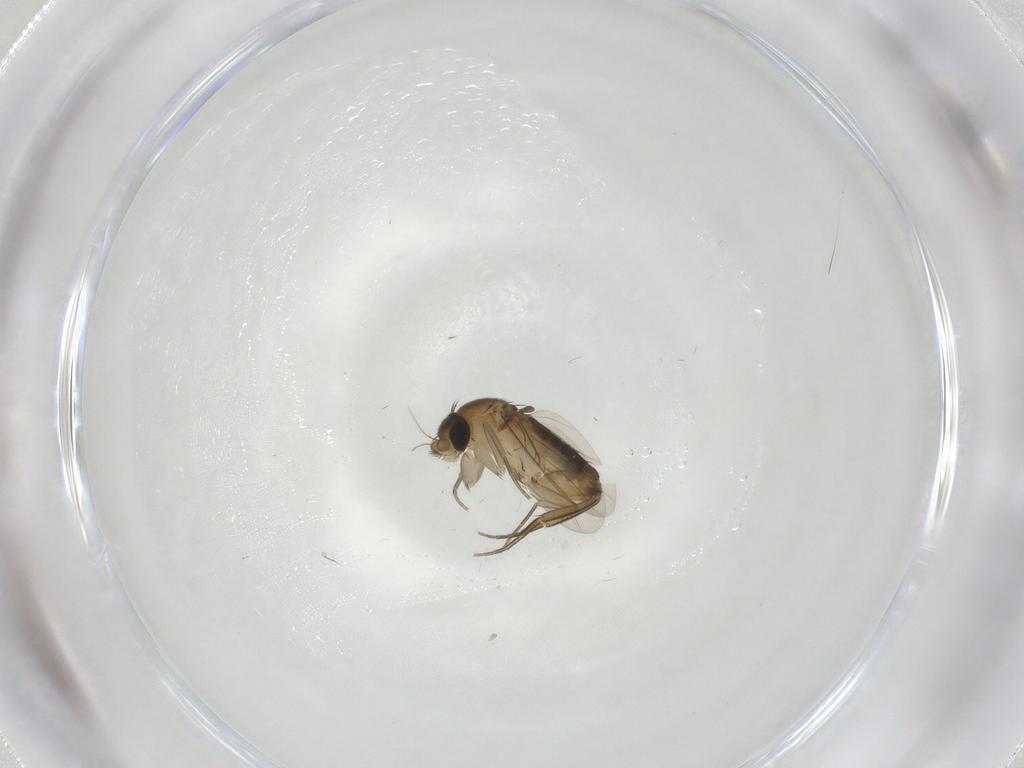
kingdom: Animalia
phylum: Arthropoda
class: Insecta
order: Diptera
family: Phoridae
